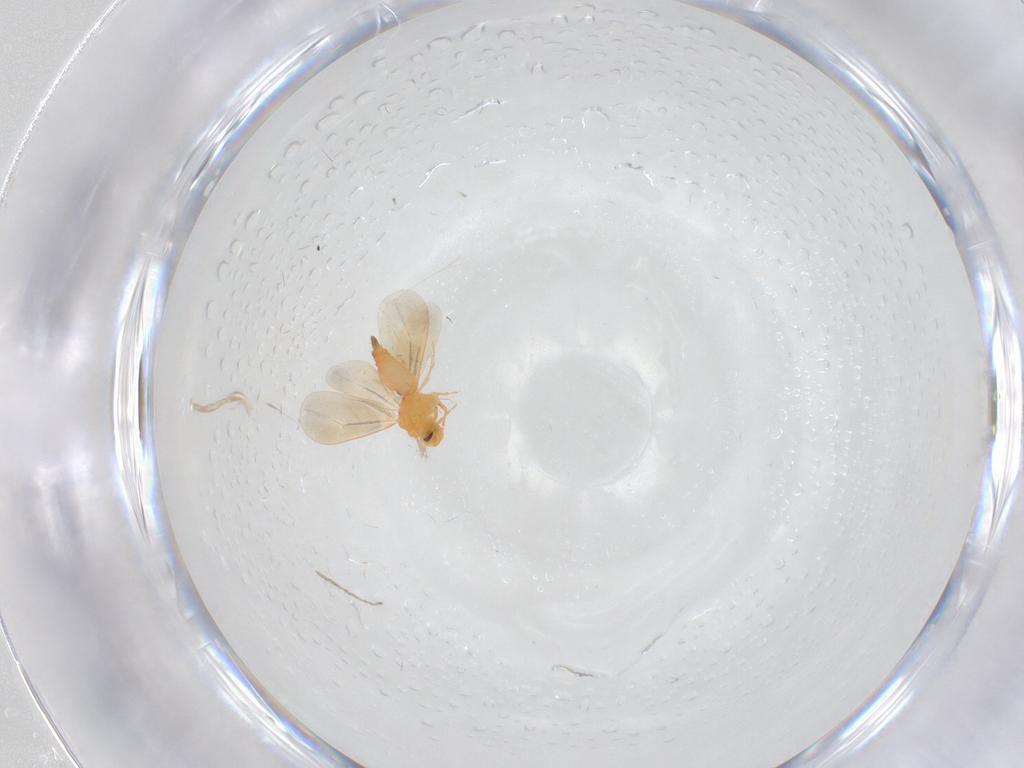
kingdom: Animalia
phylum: Arthropoda
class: Insecta
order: Hemiptera
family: Aleyrodidae
